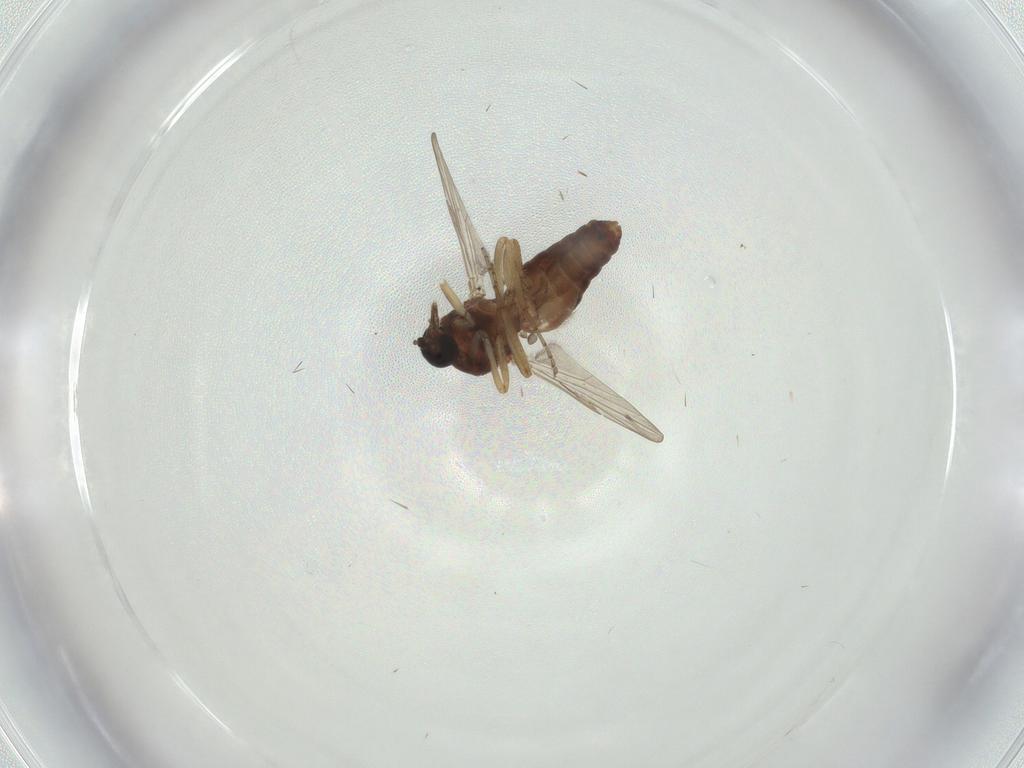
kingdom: Animalia
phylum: Arthropoda
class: Insecta
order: Diptera
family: Ceratopogonidae
